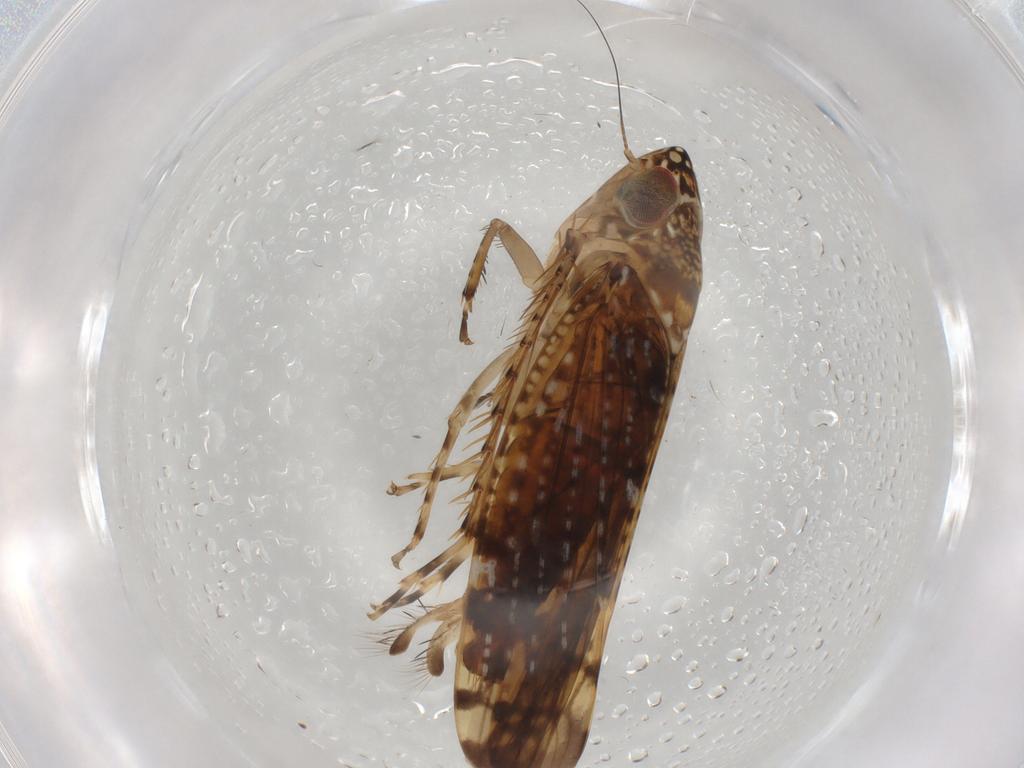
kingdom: Animalia
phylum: Arthropoda
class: Insecta
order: Hemiptera
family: Cicadellidae
